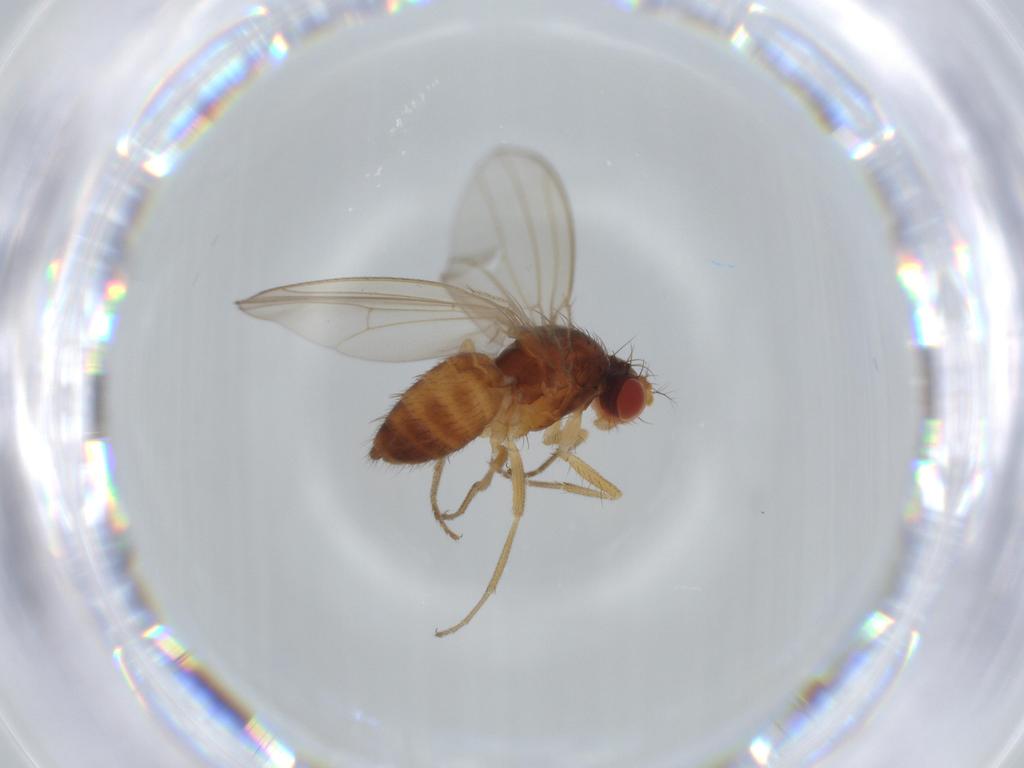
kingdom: Animalia
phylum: Arthropoda
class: Insecta
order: Diptera
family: Drosophilidae
